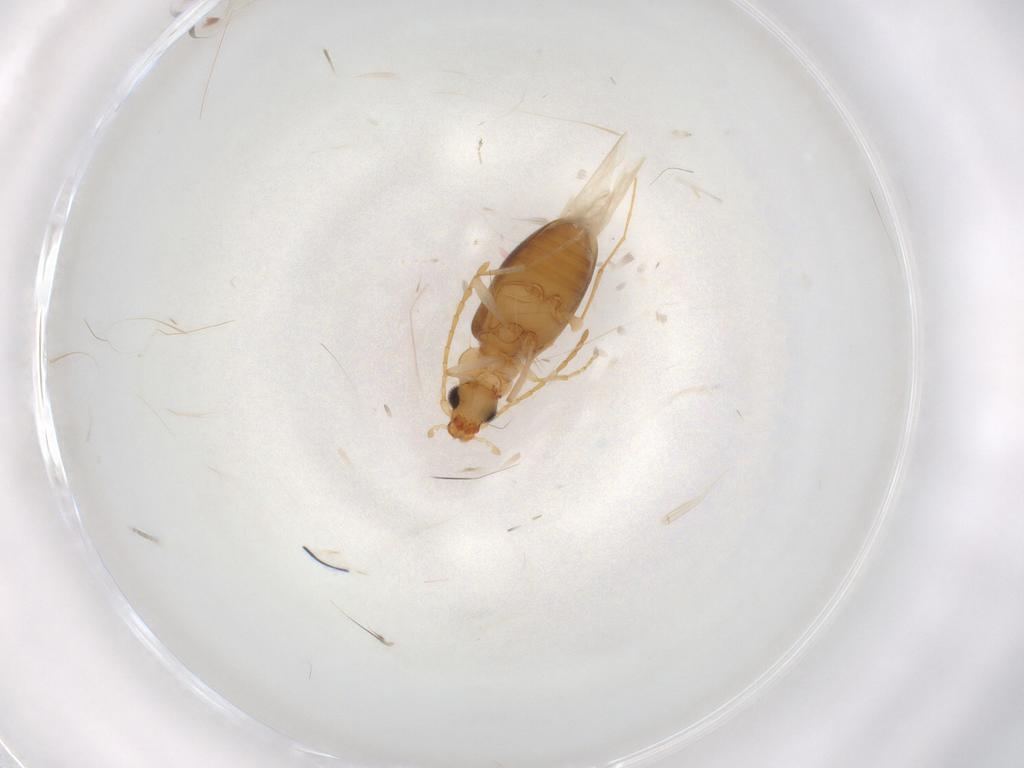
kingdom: Animalia
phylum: Arthropoda
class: Insecta
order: Coleoptera
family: Anthicidae
